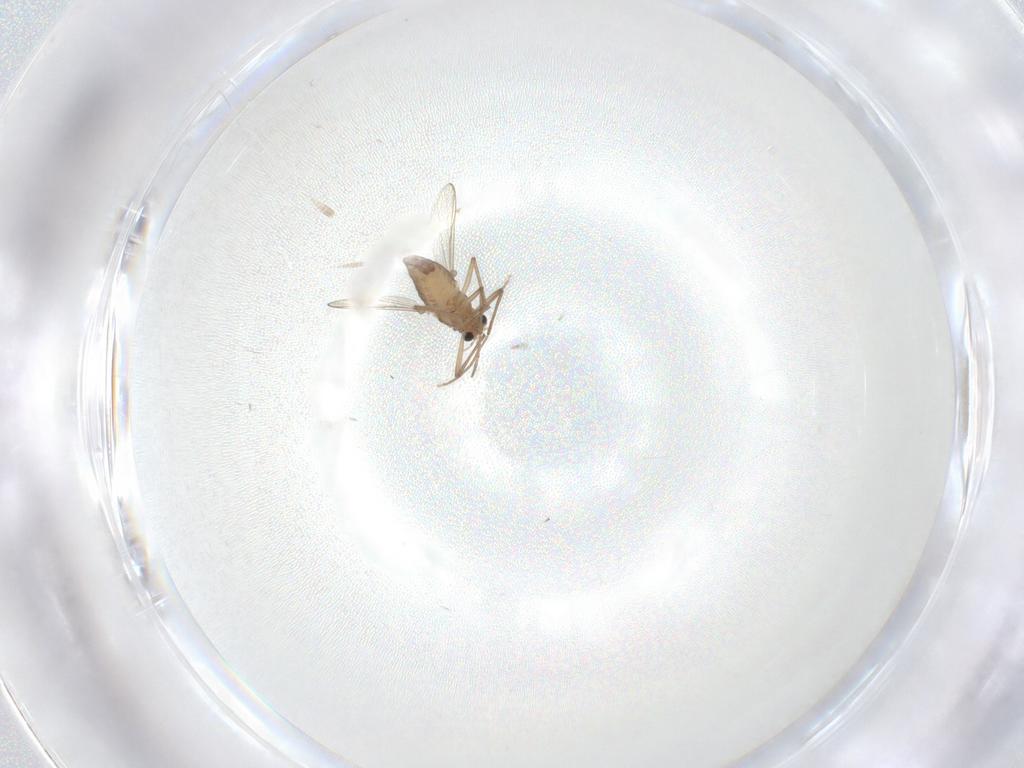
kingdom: Animalia
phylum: Arthropoda
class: Insecta
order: Diptera
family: Chironomidae
